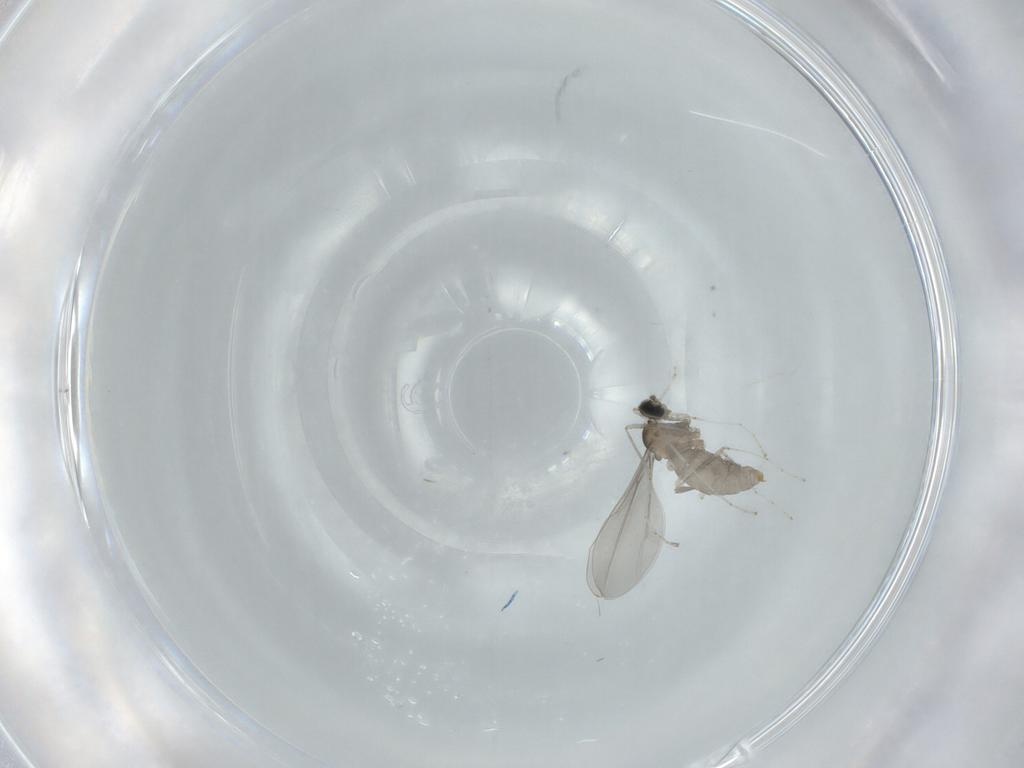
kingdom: Animalia
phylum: Arthropoda
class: Insecta
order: Diptera
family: Cecidomyiidae
